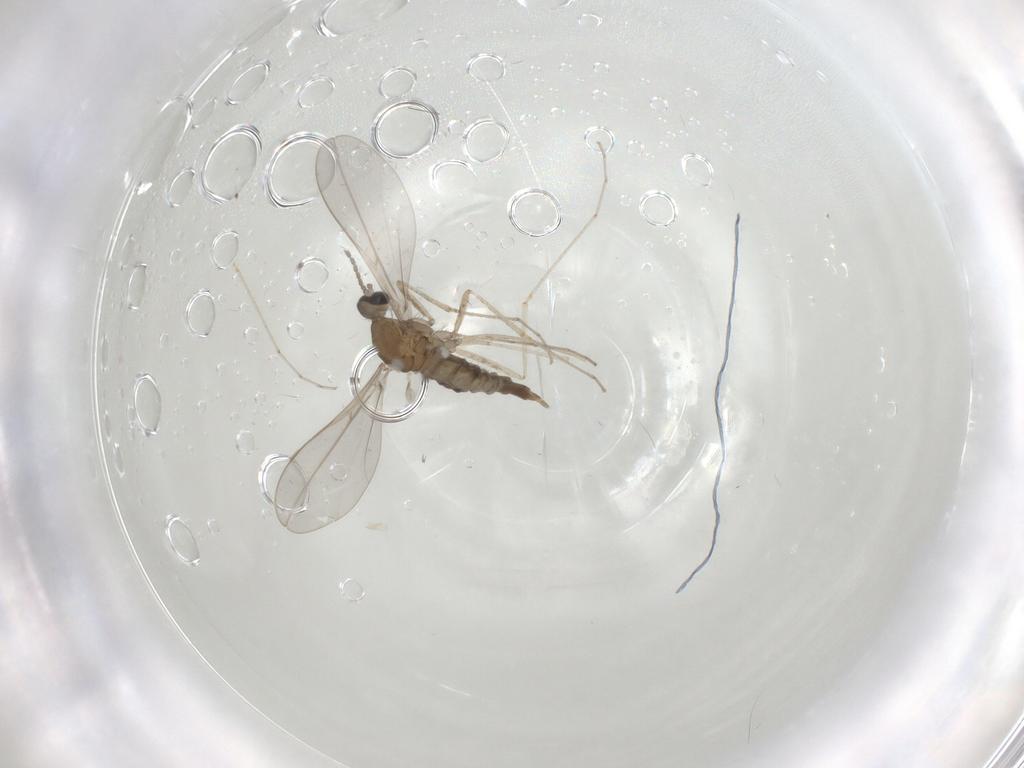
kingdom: Animalia
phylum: Arthropoda
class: Insecta
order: Diptera
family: Cecidomyiidae
